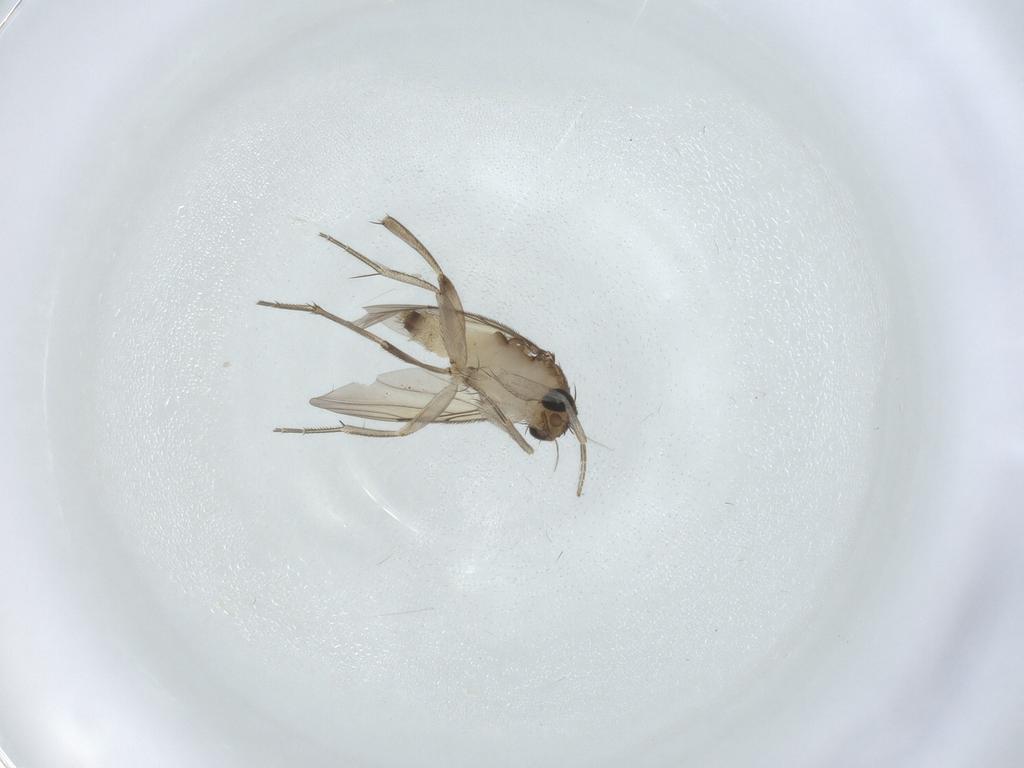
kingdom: Animalia
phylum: Arthropoda
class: Insecta
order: Diptera
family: Phoridae
